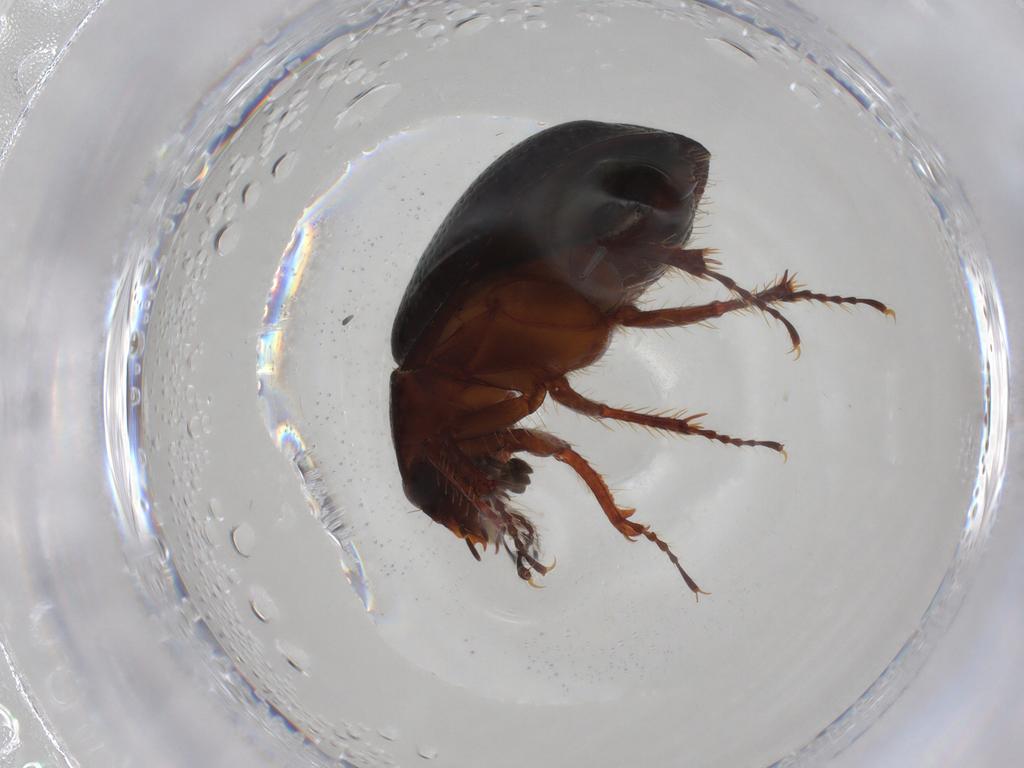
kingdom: Animalia
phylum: Arthropoda
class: Insecta
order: Coleoptera
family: Hybosoridae
